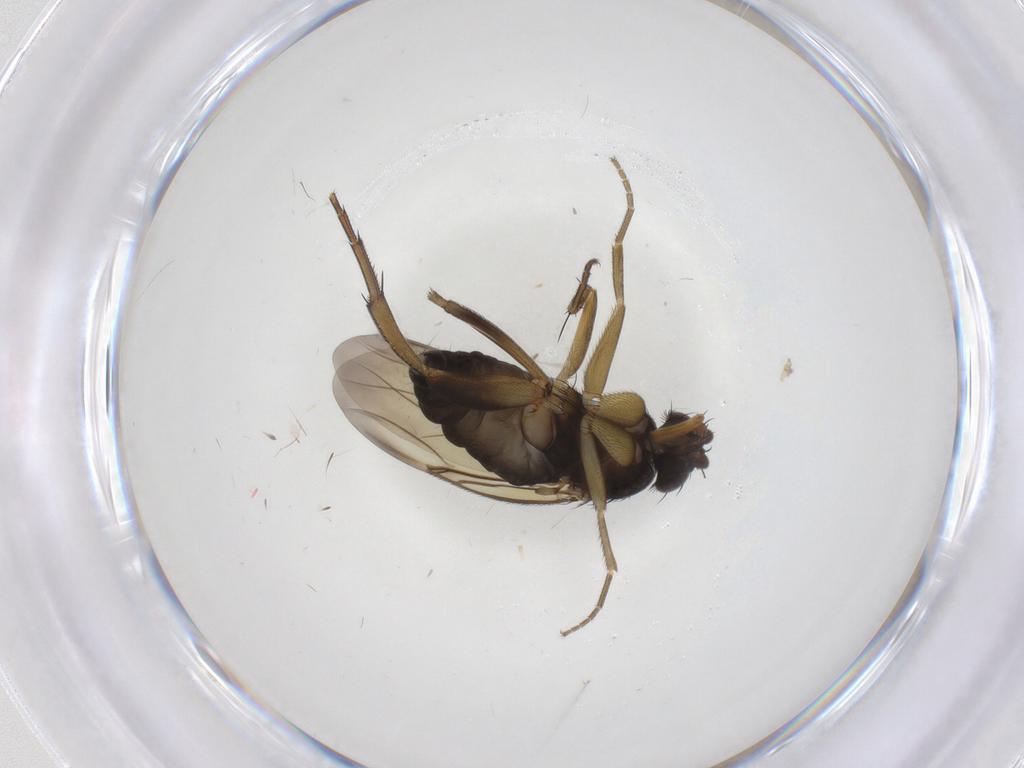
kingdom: Animalia
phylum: Arthropoda
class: Insecta
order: Diptera
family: Phoridae
